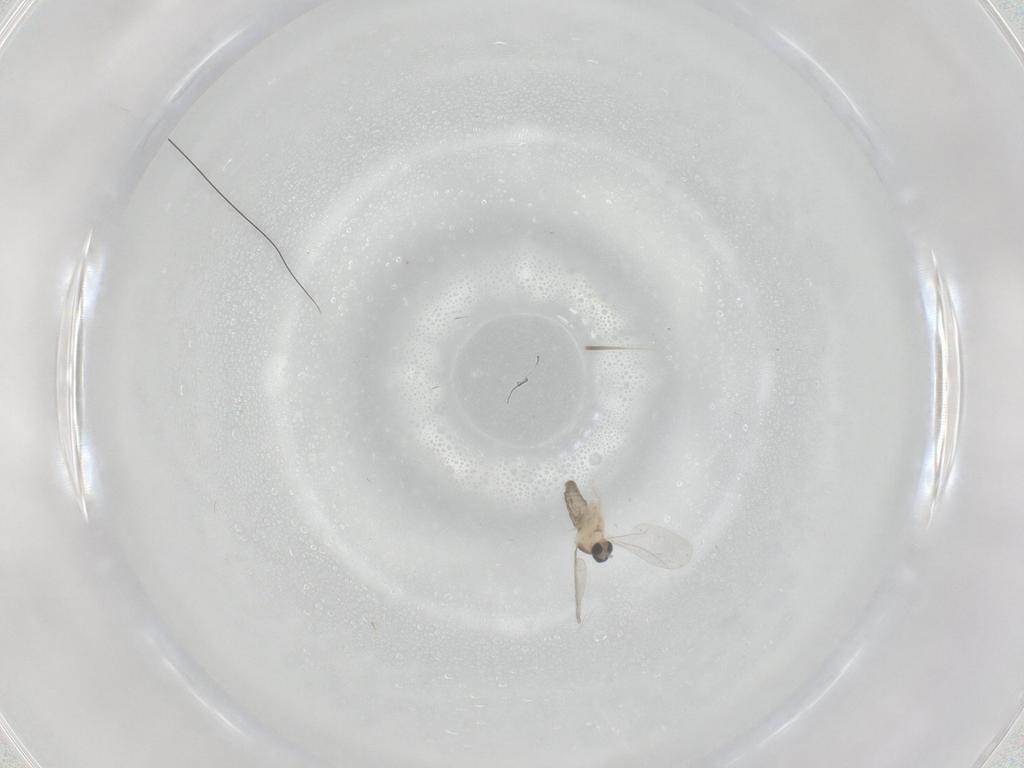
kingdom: Animalia
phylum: Arthropoda
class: Insecta
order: Diptera
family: Cecidomyiidae
